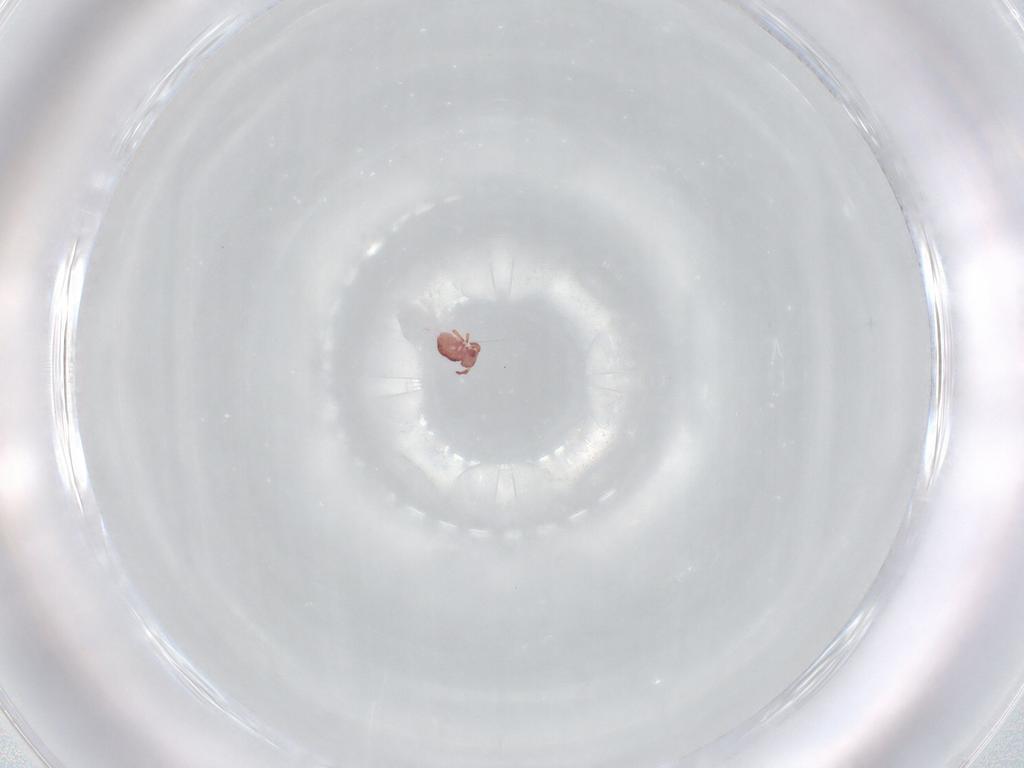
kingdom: Animalia
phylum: Arthropoda
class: Collembola
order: Symphypleona
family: Sminthurididae
